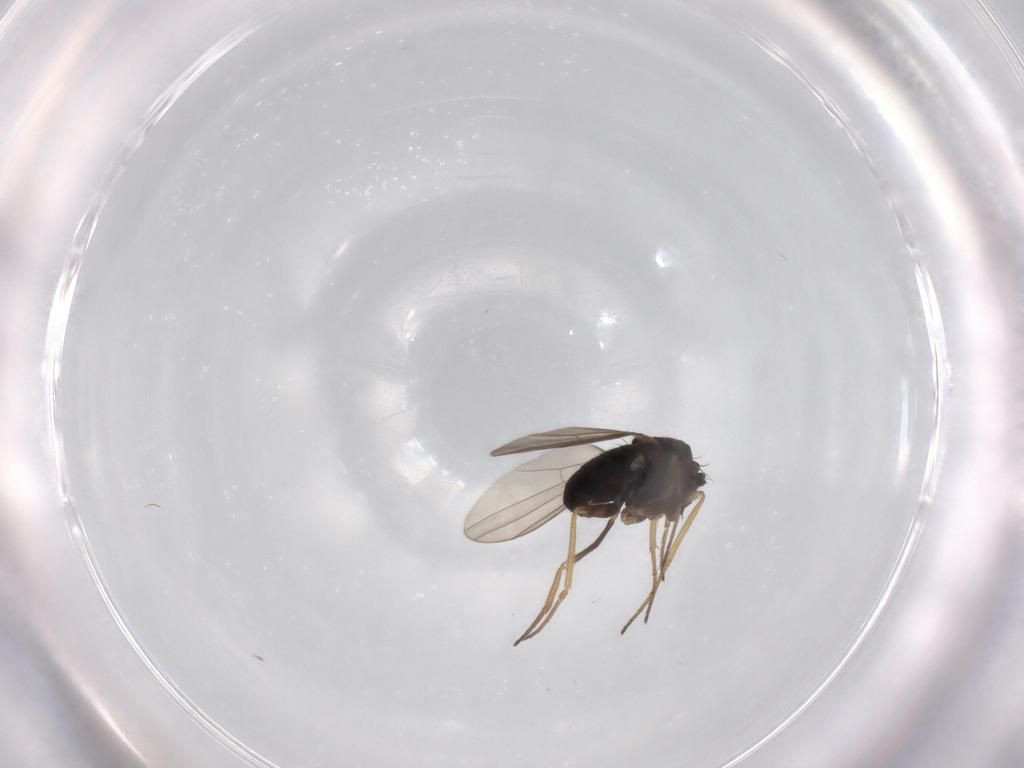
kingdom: Animalia
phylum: Arthropoda
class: Insecta
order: Diptera
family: Dolichopodidae
